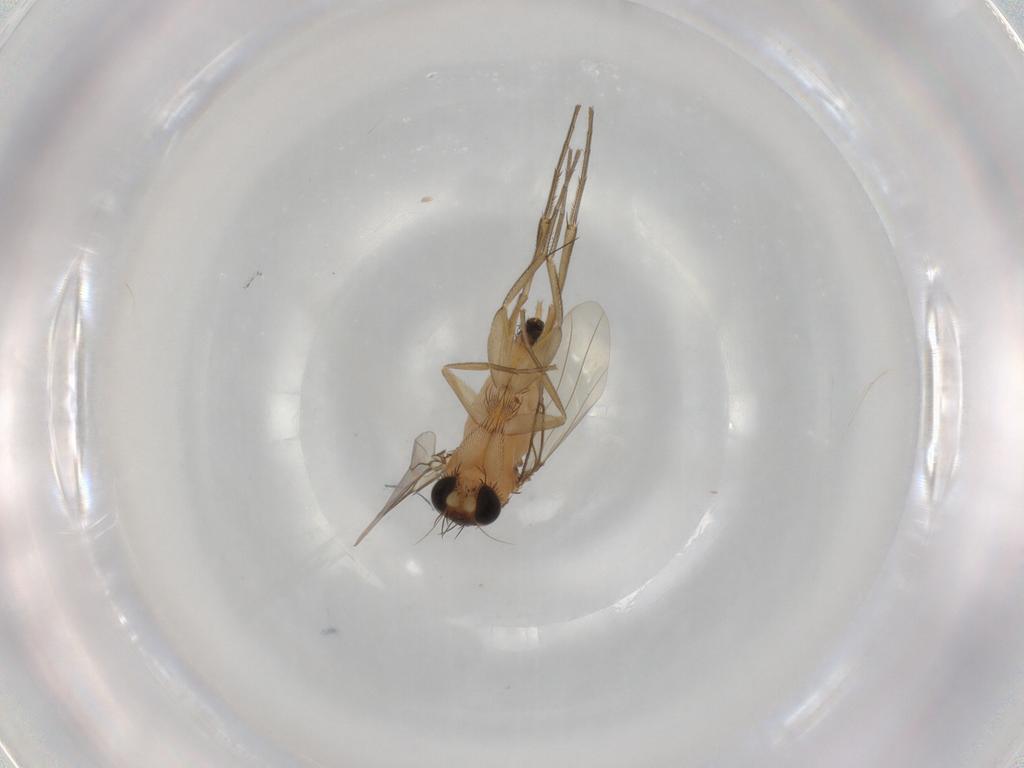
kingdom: Animalia
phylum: Arthropoda
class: Insecta
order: Diptera
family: Phoridae
